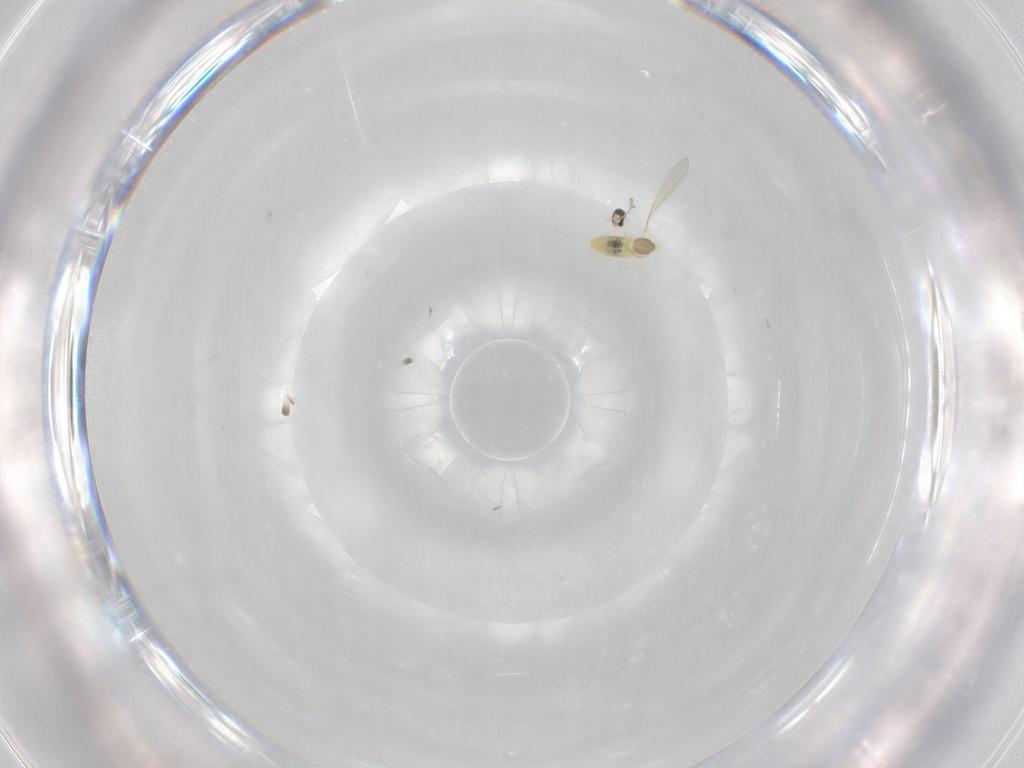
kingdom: Animalia
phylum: Arthropoda
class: Insecta
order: Diptera
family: Cecidomyiidae
